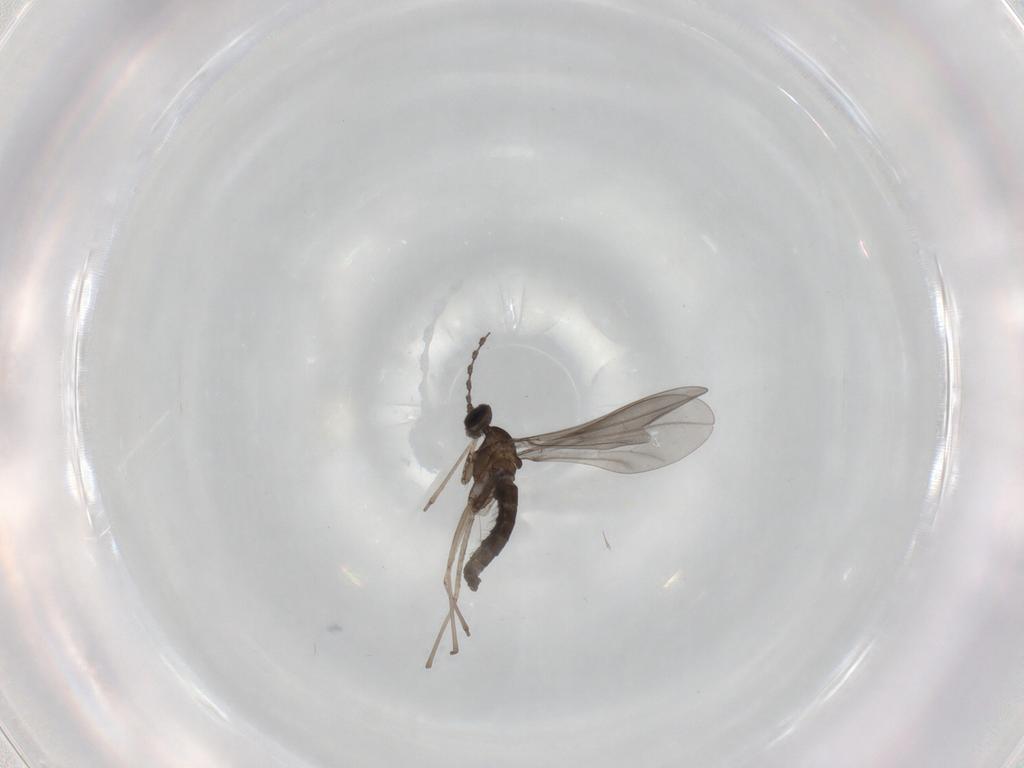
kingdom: Animalia
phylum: Arthropoda
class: Insecta
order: Diptera
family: Cecidomyiidae
